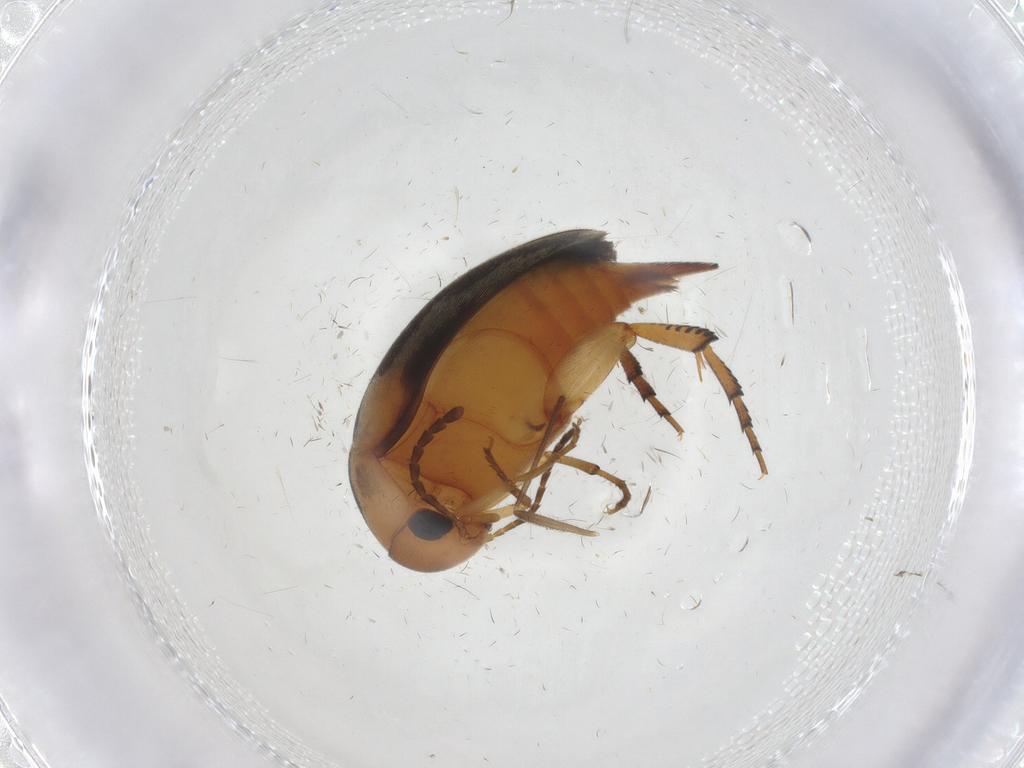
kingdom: Animalia
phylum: Arthropoda
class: Insecta
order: Coleoptera
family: Mordellidae
